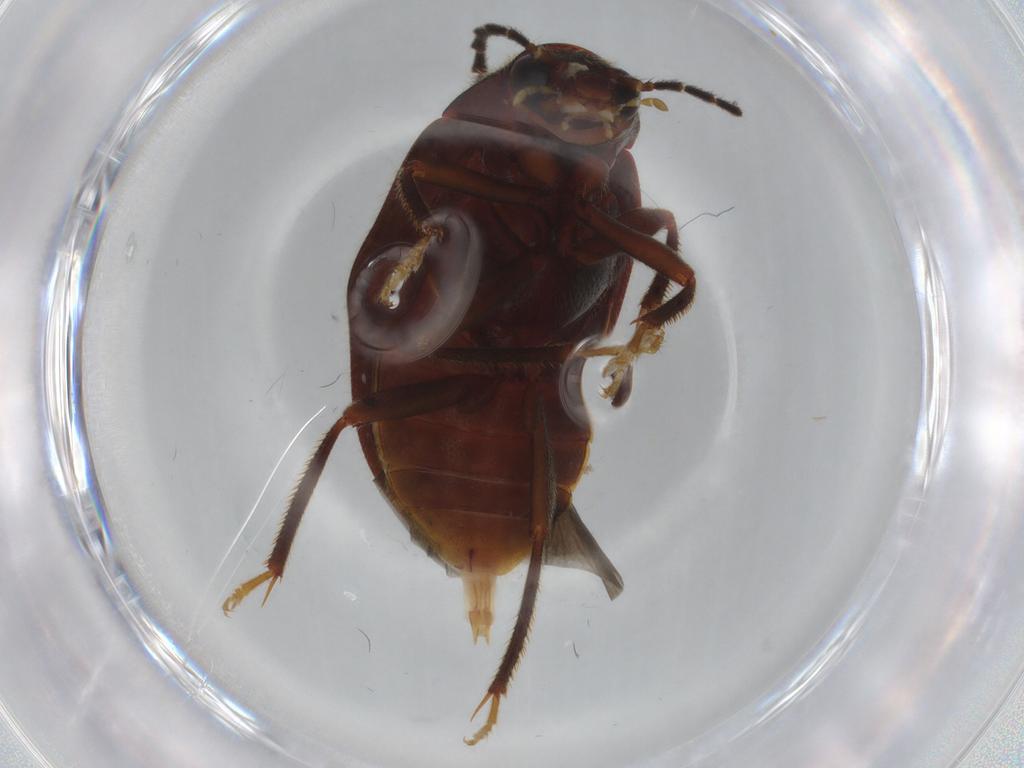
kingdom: Animalia
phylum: Arthropoda
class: Insecta
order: Coleoptera
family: Ptilodactylidae
